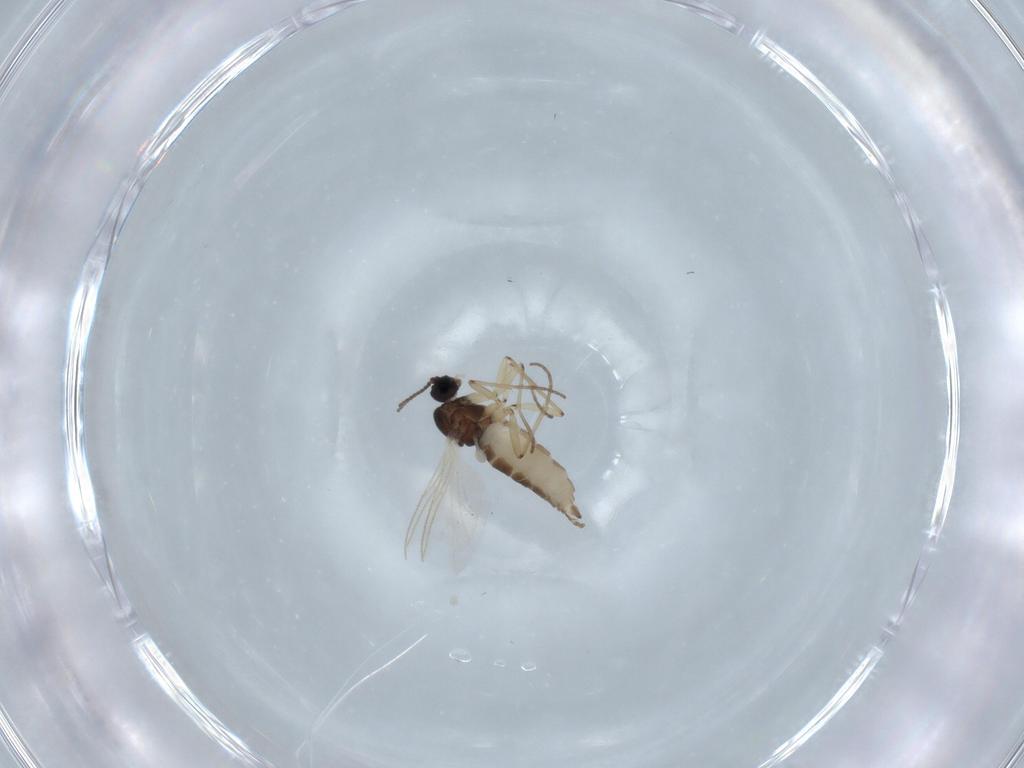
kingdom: Animalia
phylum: Arthropoda
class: Insecta
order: Diptera
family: Sciaridae
